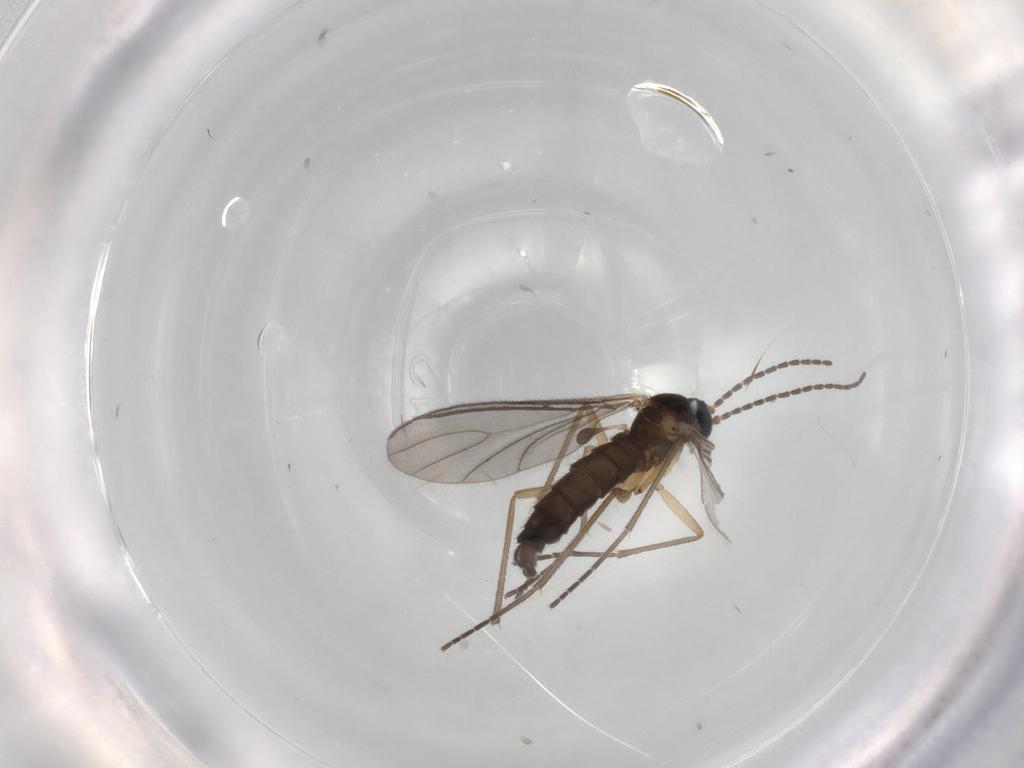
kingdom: Animalia
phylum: Arthropoda
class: Insecta
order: Diptera
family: Sciaridae
